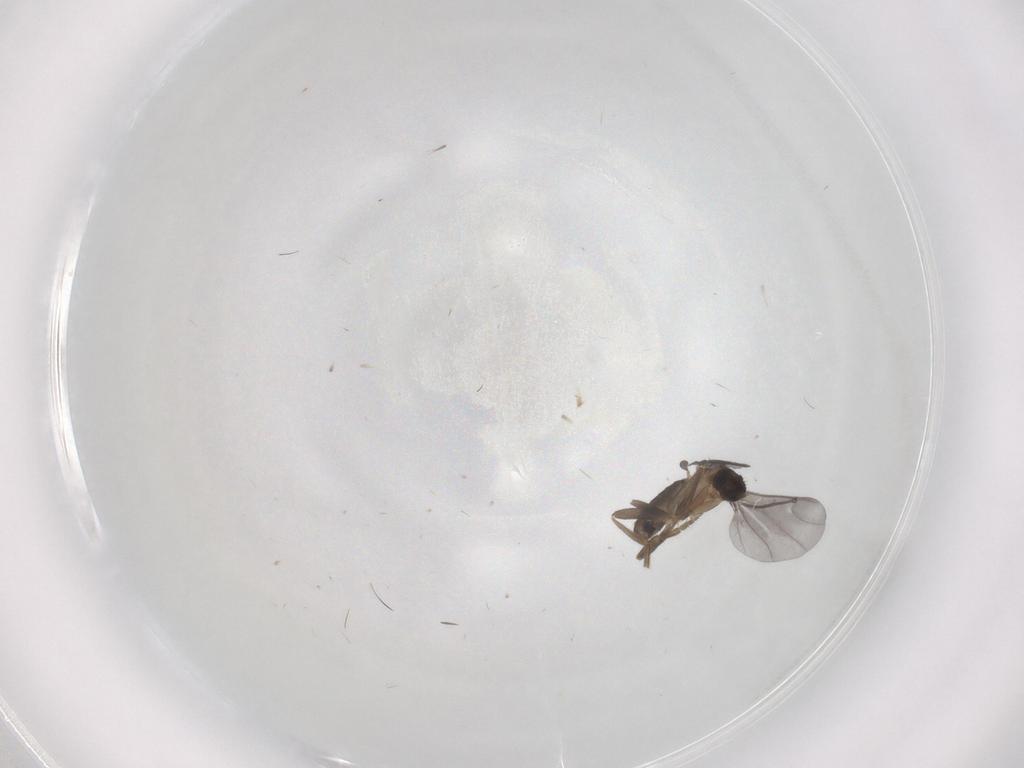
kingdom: Animalia
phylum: Arthropoda
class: Insecta
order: Diptera
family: Phoridae
